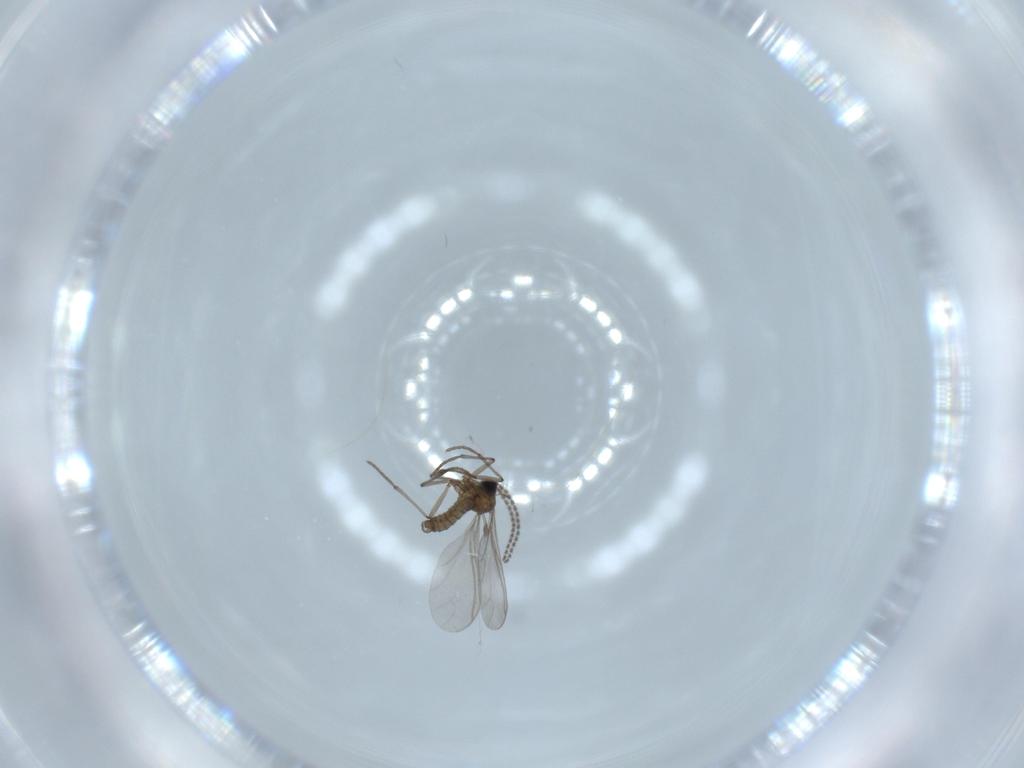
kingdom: Animalia
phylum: Arthropoda
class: Insecta
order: Diptera
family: Sciaridae
